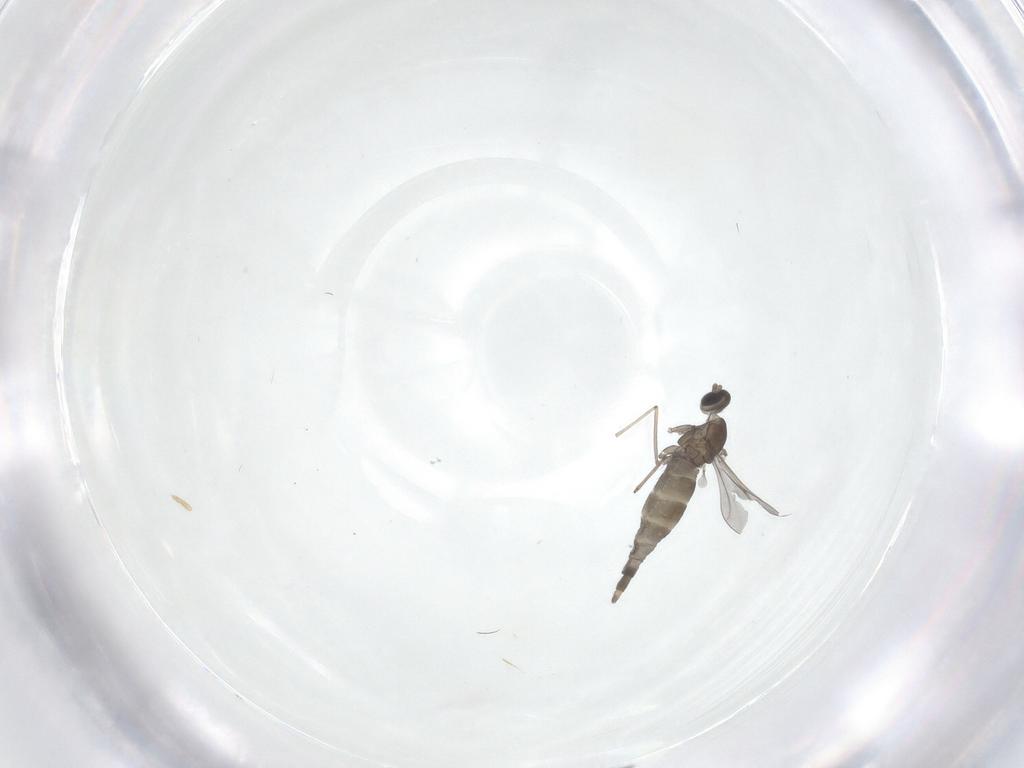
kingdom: Animalia
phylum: Arthropoda
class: Insecta
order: Diptera
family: Cecidomyiidae
